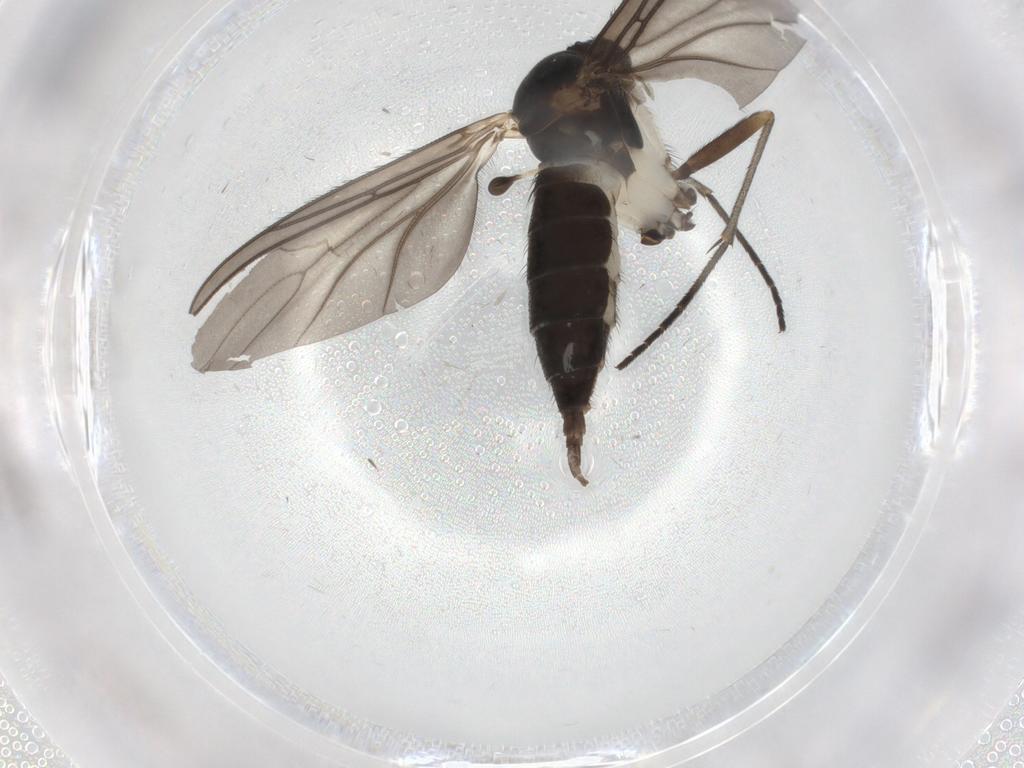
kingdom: Animalia
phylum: Arthropoda
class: Insecta
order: Diptera
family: Phoridae
